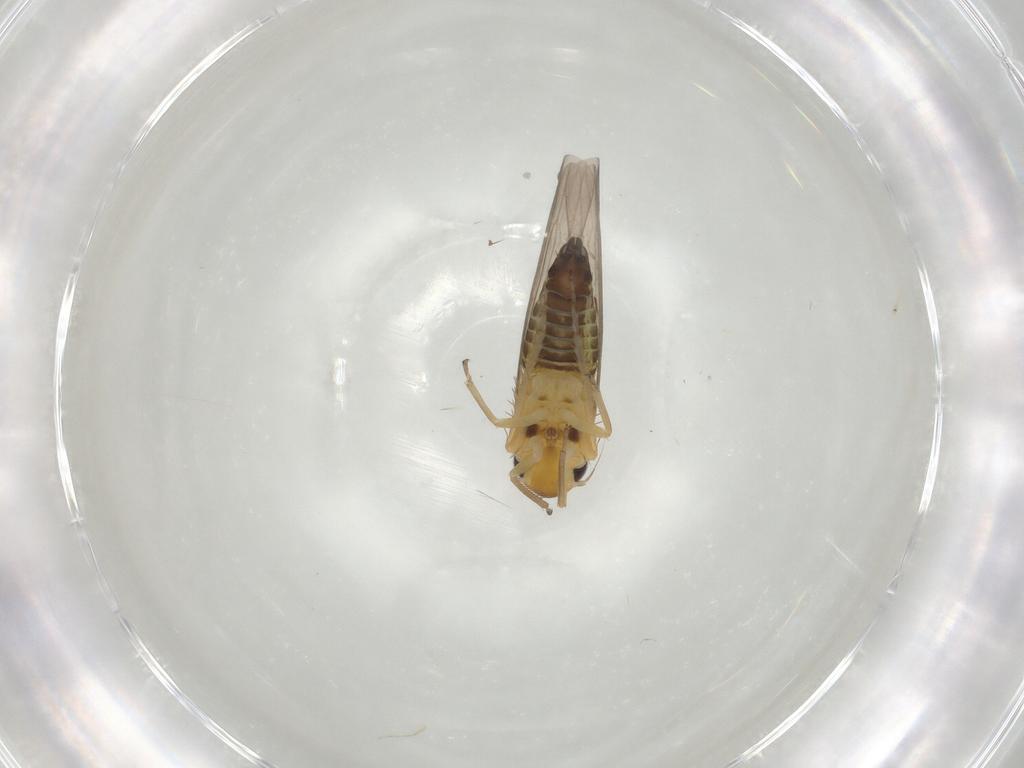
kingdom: Animalia
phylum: Arthropoda
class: Insecta
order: Hemiptera
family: Cicadellidae
